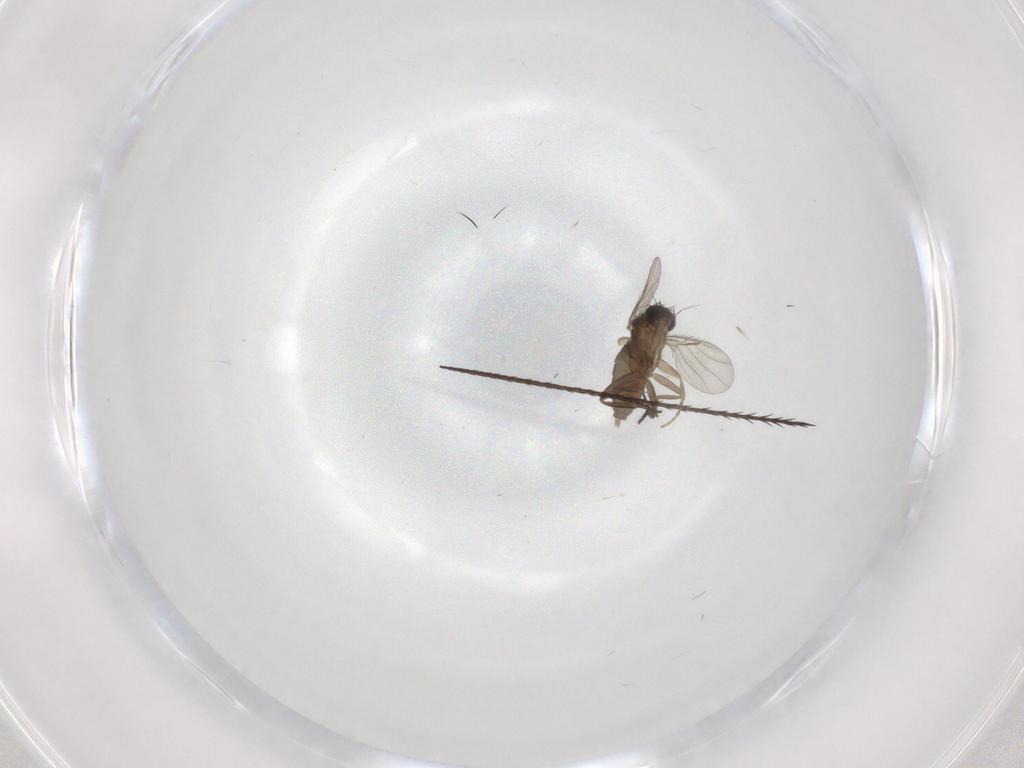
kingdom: Animalia
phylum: Arthropoda
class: Insecta
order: Diptera
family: Phoridae
